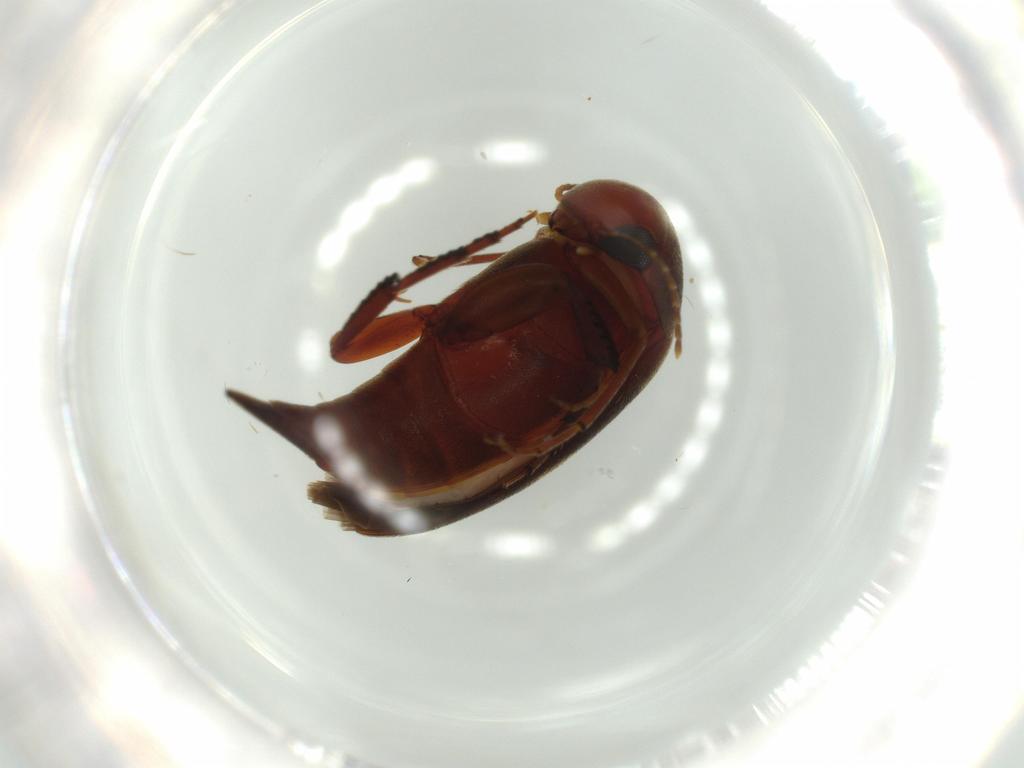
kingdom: Animalia
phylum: Arthropoda
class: Insecta
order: Coleoptera
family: Mordellidae
